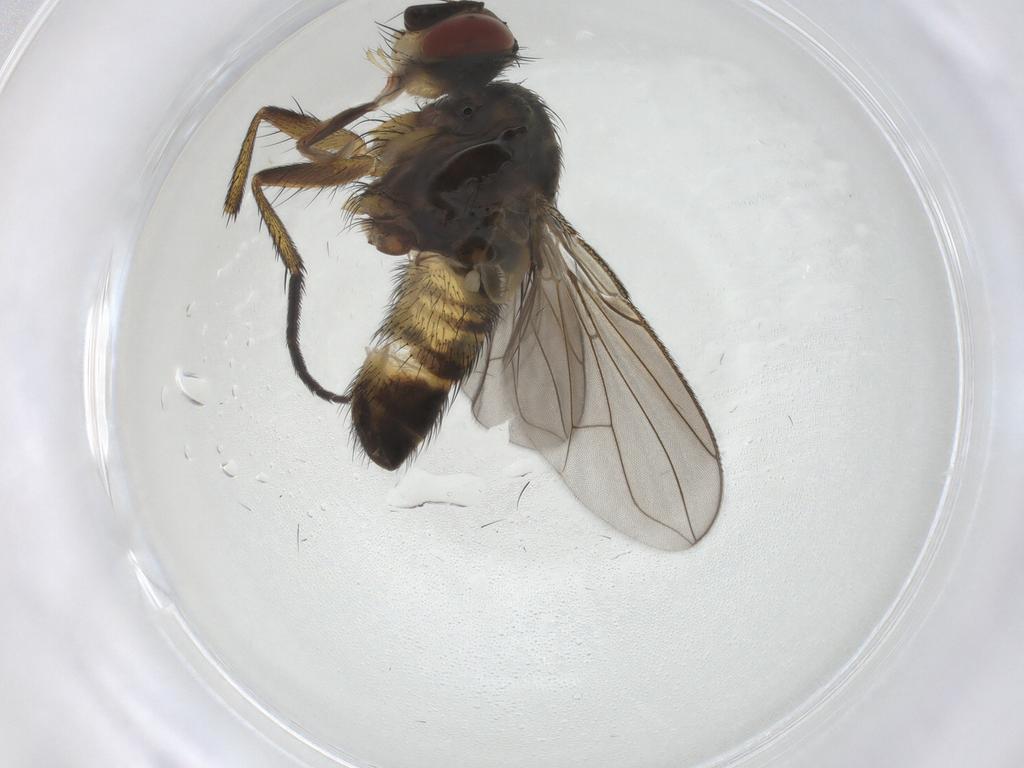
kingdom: Animalia
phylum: Arthropoda
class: Insecta
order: Diptera
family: Tachinidae
